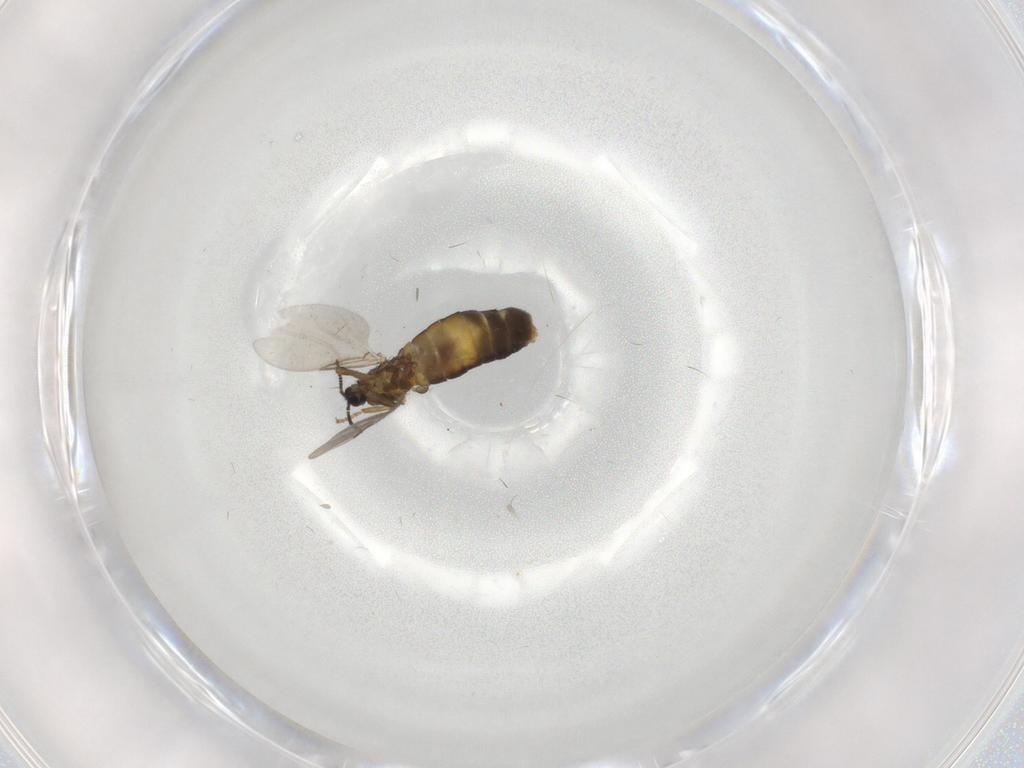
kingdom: Animalia
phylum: Arthropoda
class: Insecta
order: Diptera
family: Scatopsidae
